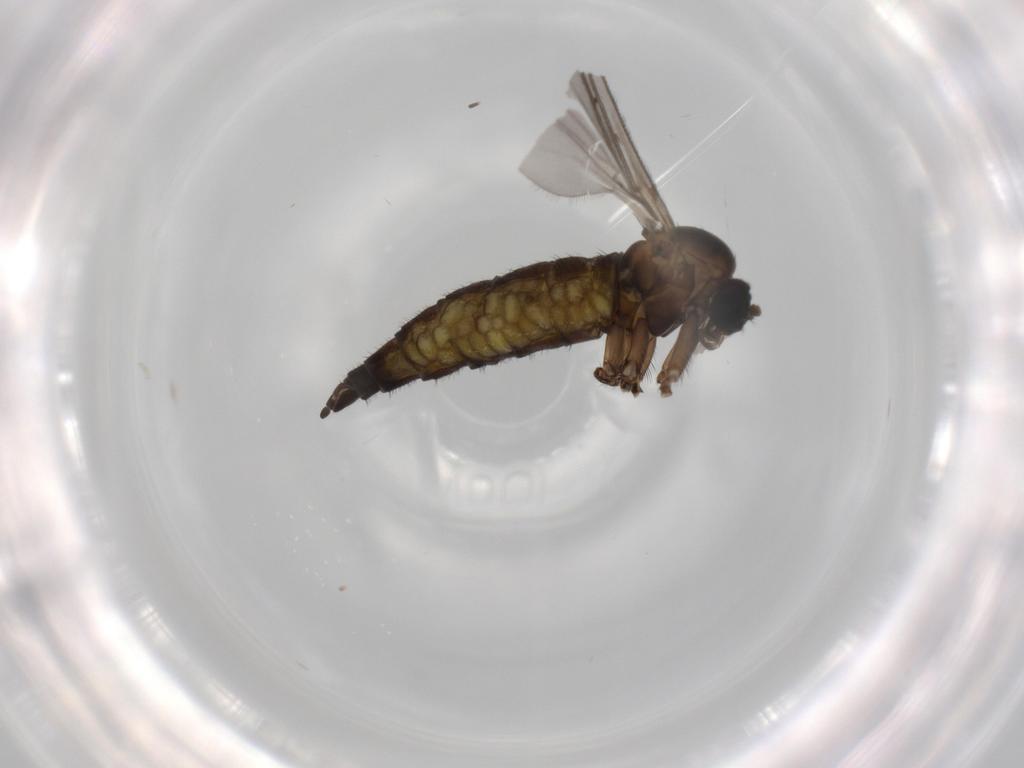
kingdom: Animalia
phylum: Arthropoda
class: Insecta
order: Diptera
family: Sciaridae
